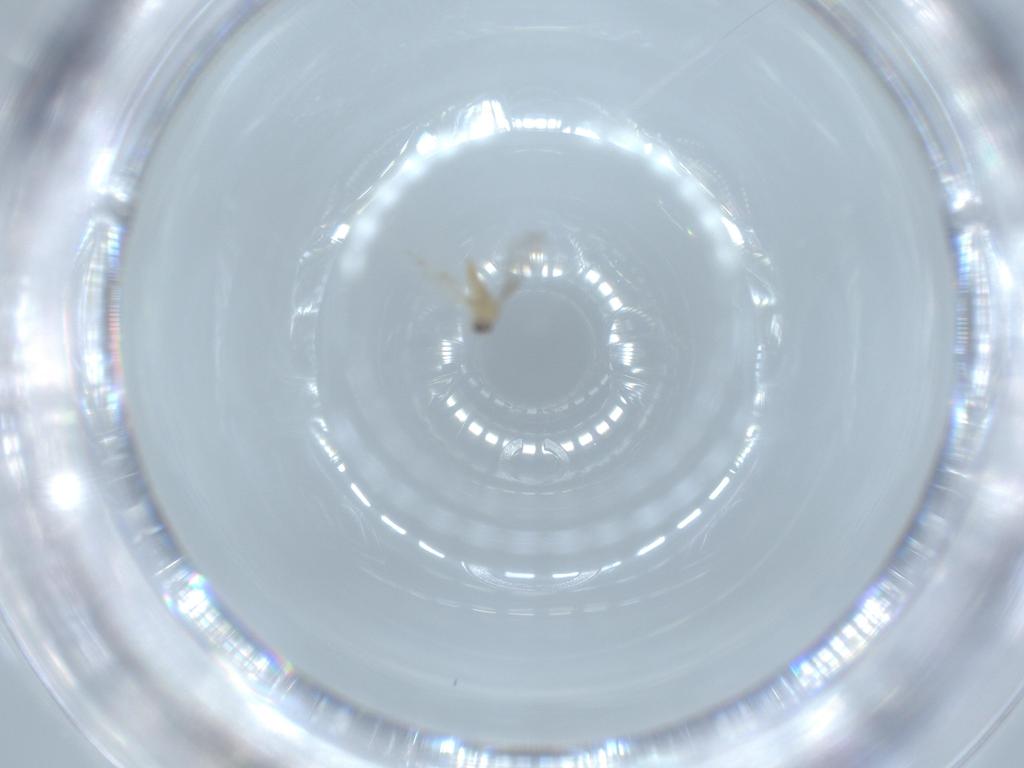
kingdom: Animalia
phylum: Arthropoda
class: Insecta
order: Diptera
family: Cecidomyiidae
